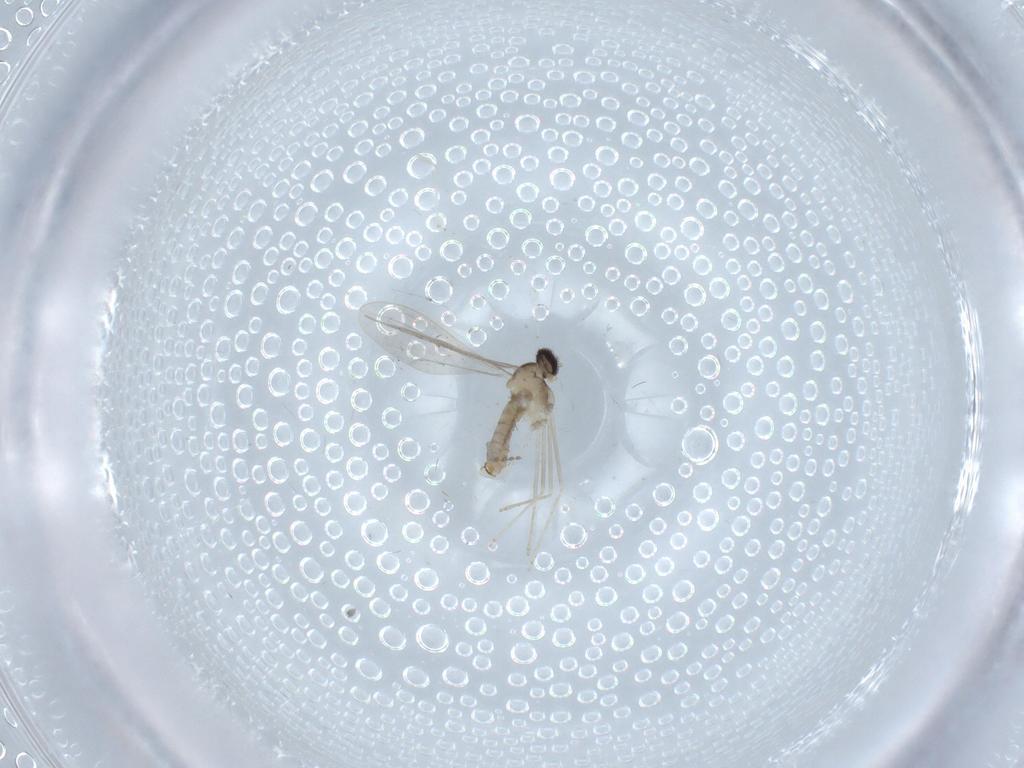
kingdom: Animalia
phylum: Arthropoda
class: Insecta
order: Diptera
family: Cecidomyiidae
